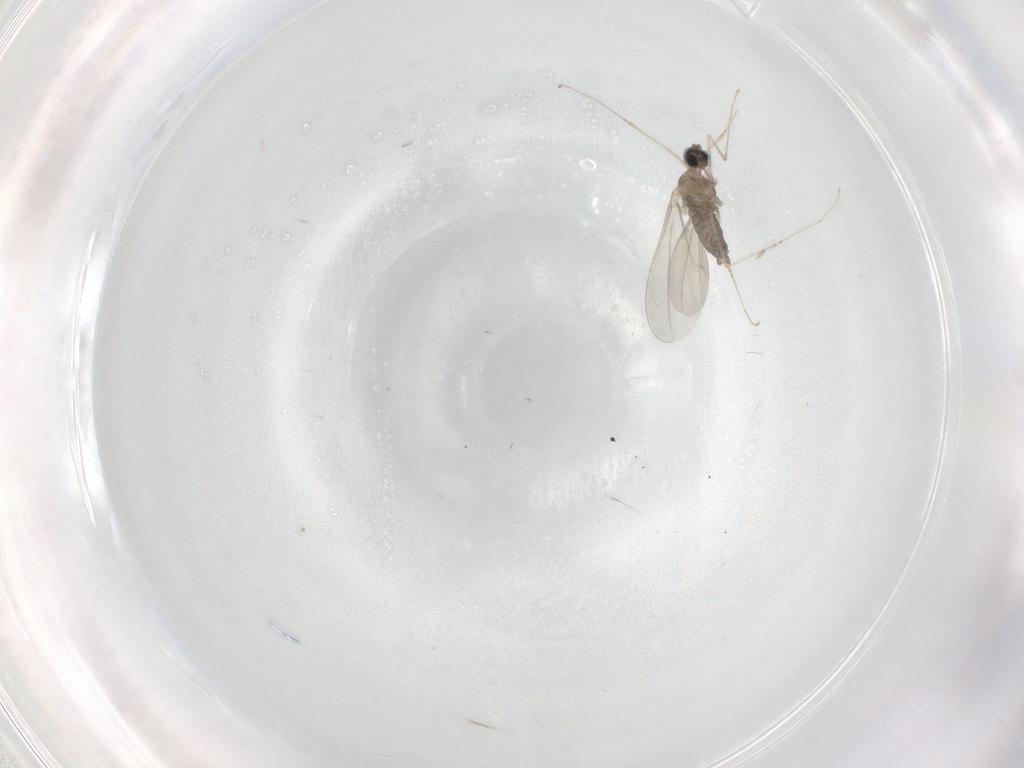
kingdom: Animalia
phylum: Arthropoda
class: Insecta
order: Diptera
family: Cecidomyiidae
